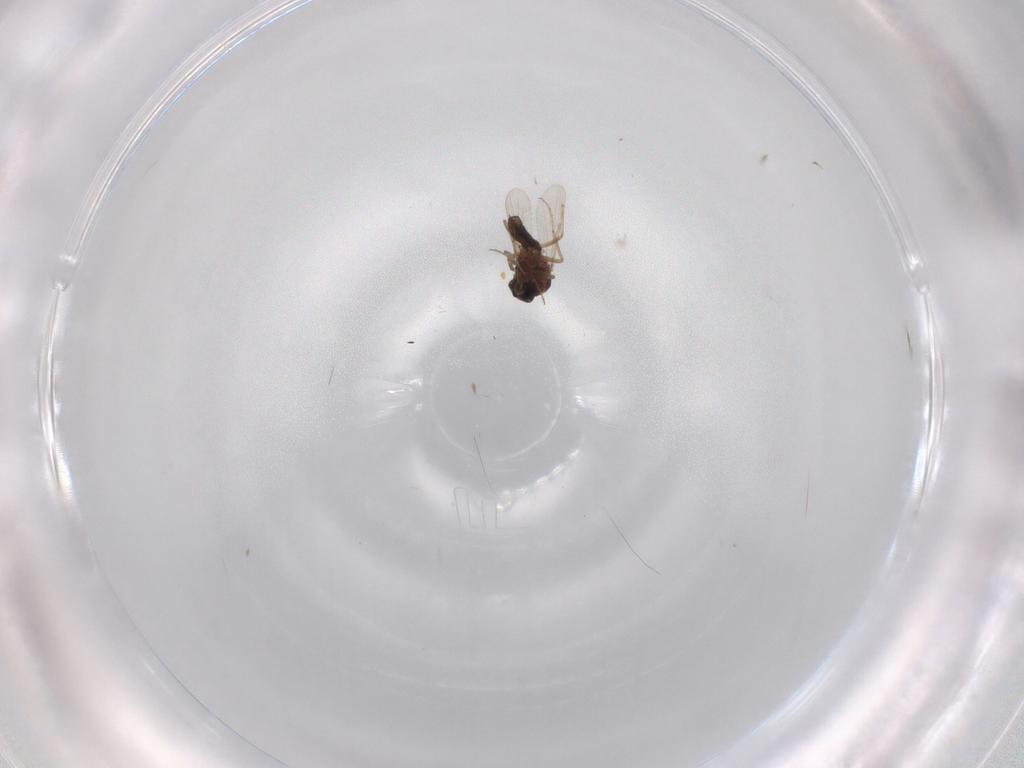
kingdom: Animalia
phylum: Arthropoda
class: Insecta
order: Diptera
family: Ceratopogonidae
